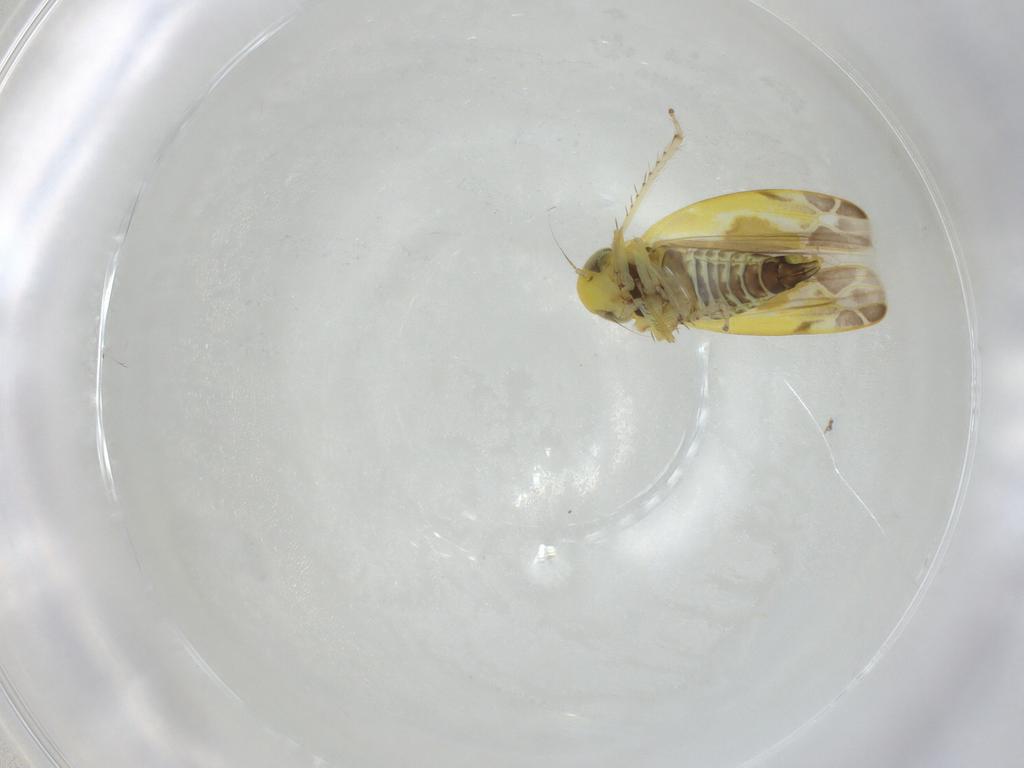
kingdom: Animalia
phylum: Arthropoda
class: Insecta
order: Hemiptera
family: Cicadellidae
